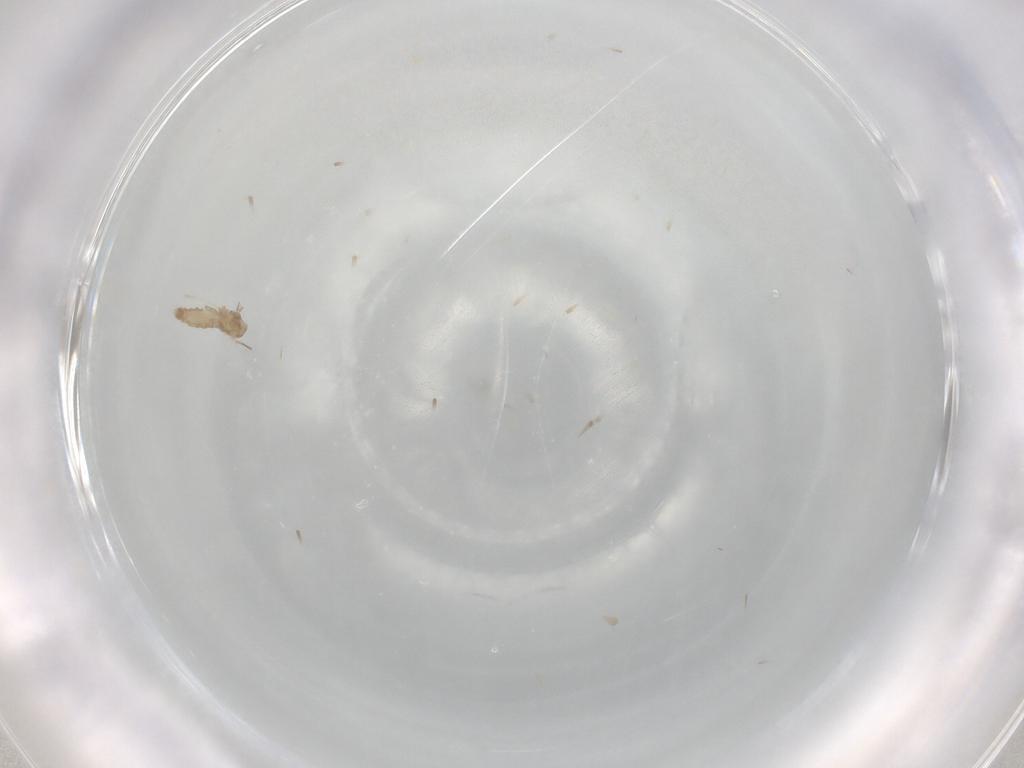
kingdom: Animalia
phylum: Arthropoda
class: Insecta
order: Diptera
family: Cecidomyiidae
